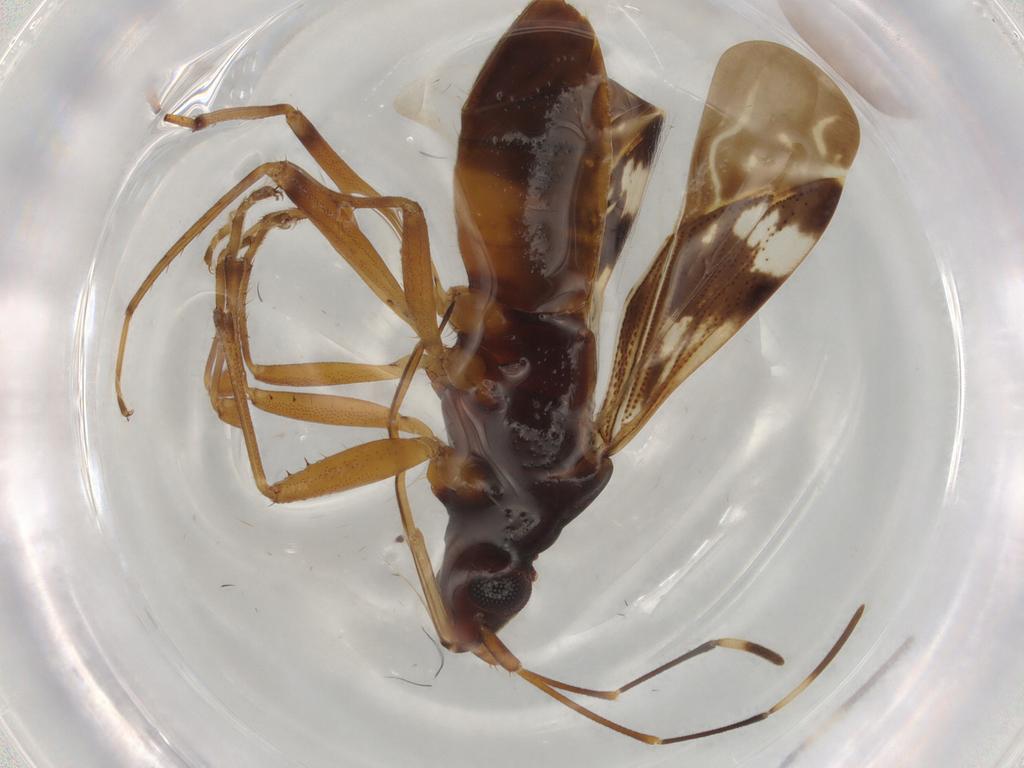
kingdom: Animalia
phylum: Arthropoda
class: Insecta
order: Hemiptera
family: Rhyparochromidae
